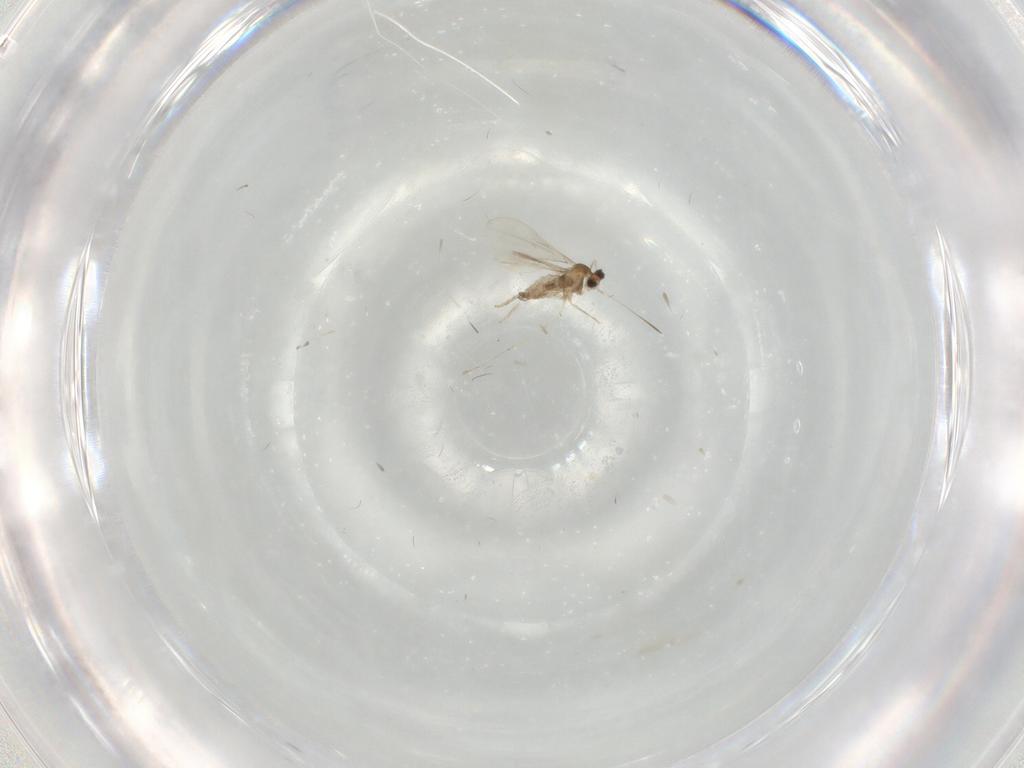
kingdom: Animalia
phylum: Arthropoda
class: Insecta
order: Diptera
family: Cecidomyiidae
